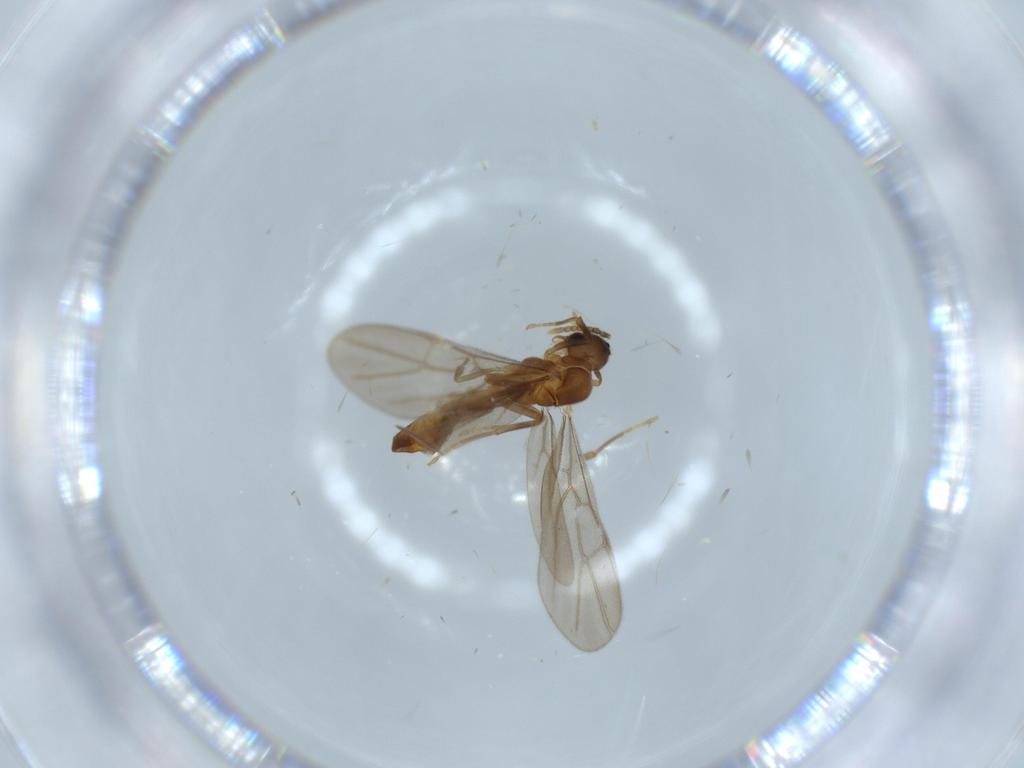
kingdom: Animalia
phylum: Arthropoda
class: Insecta
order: Hymenoptera
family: Formicidae
